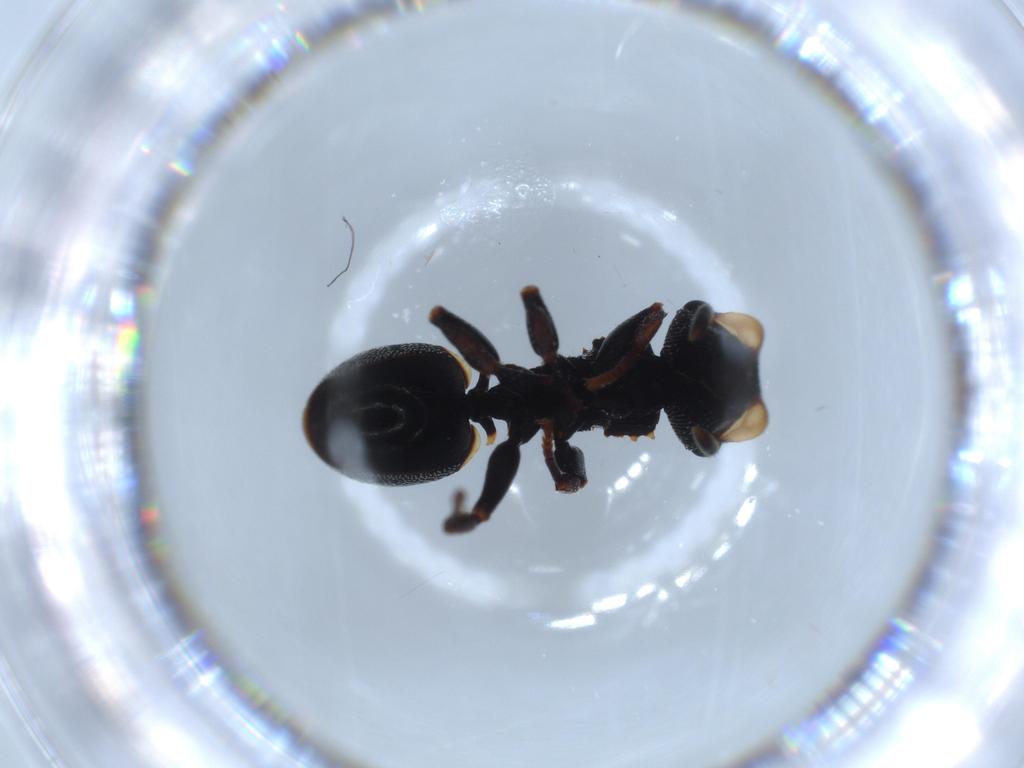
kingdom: Animalia
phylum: Arthropoda
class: Insecta
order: Hymenoptera
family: Formicidae
